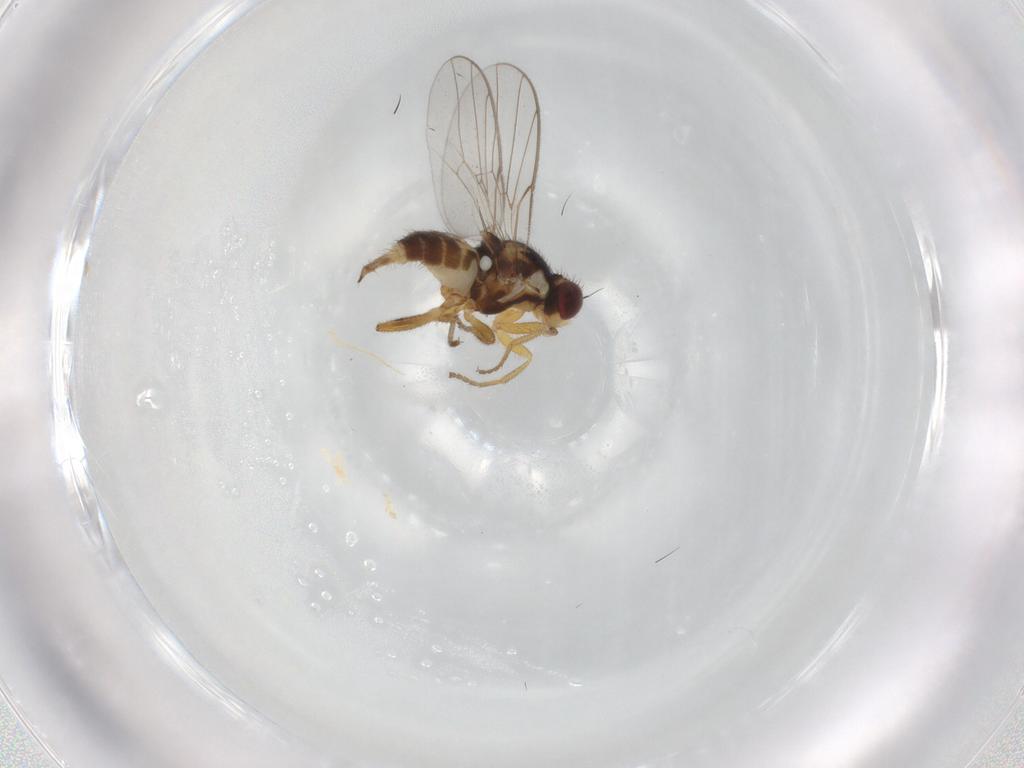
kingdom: Animalia
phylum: Arthropoda
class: Insecta
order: Diptera
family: Chloropidae
